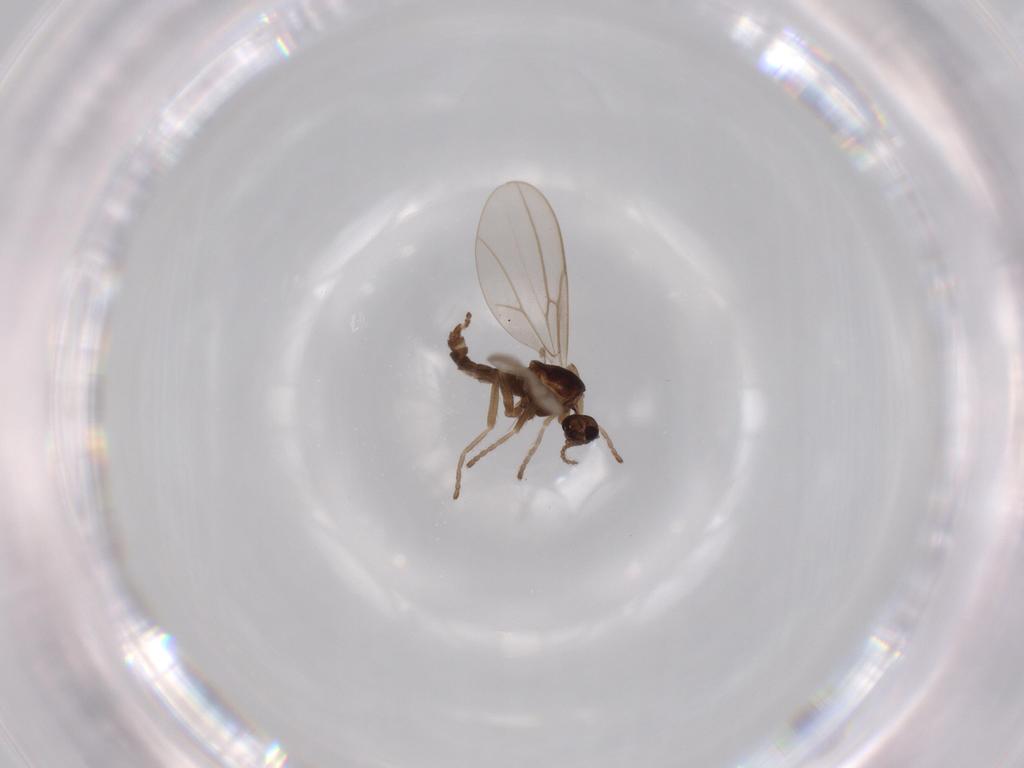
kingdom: Animalia
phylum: Arthropoda
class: Insecta
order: Diptera
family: Cecidomyiidae
